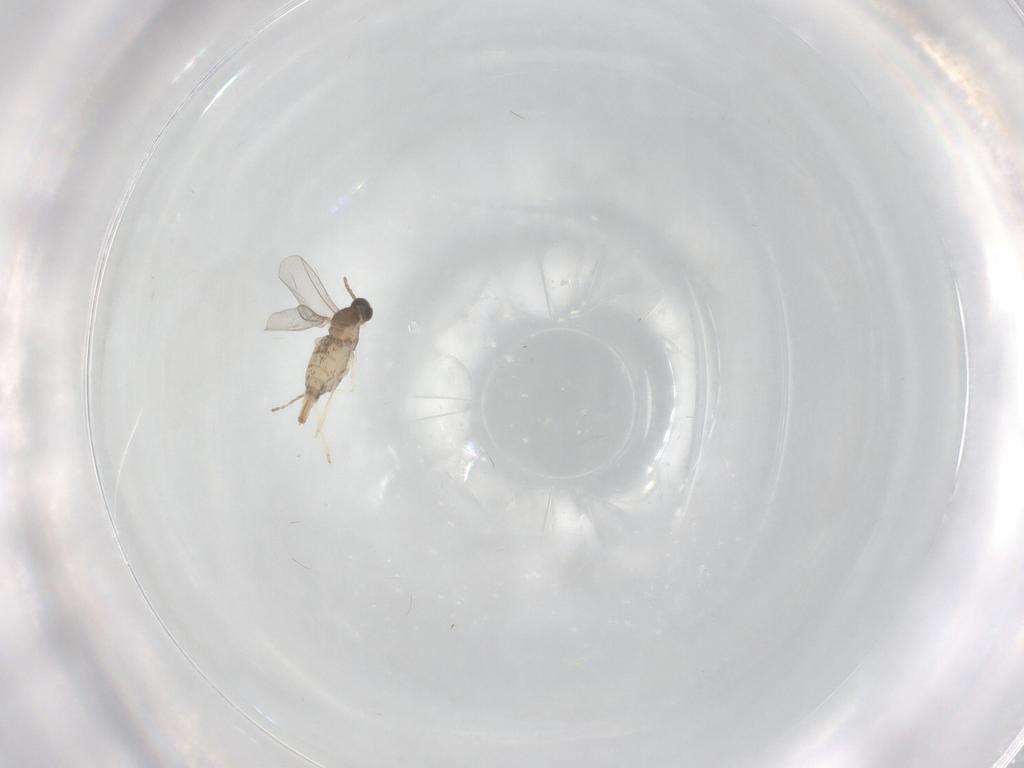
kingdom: Animalia
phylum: Arthropoda
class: Insecta
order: Diptera
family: Cecidomyiidae
